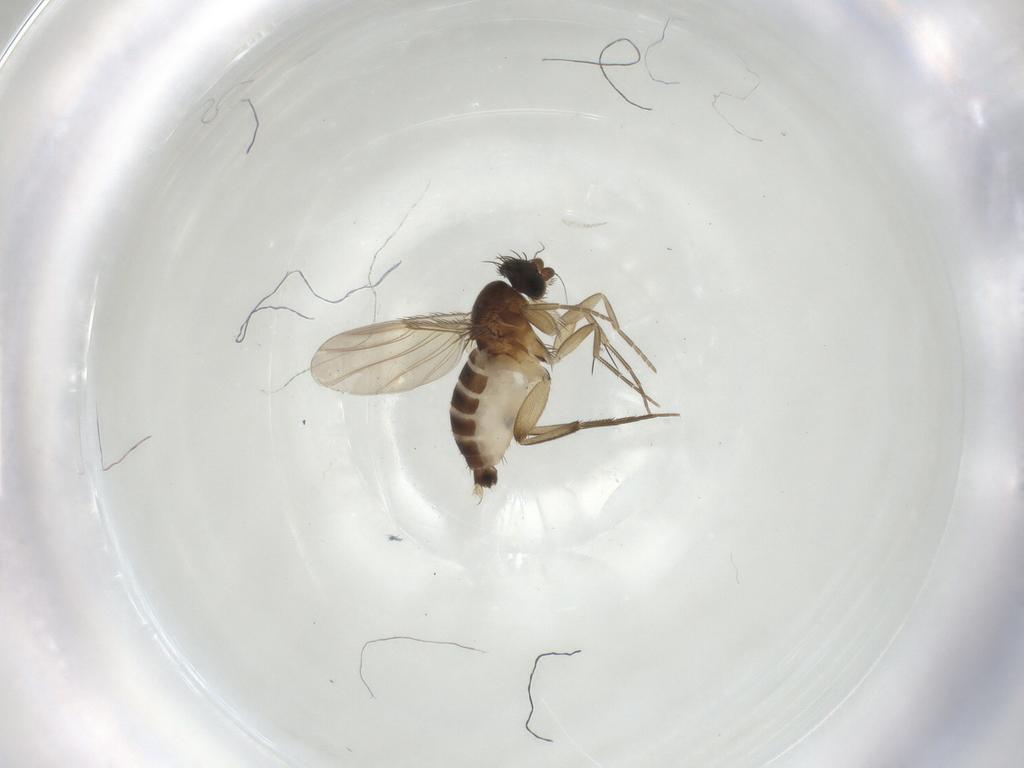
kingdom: Animalia
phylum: Arthropoda
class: Insecta
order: Diptera
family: Phoridae
